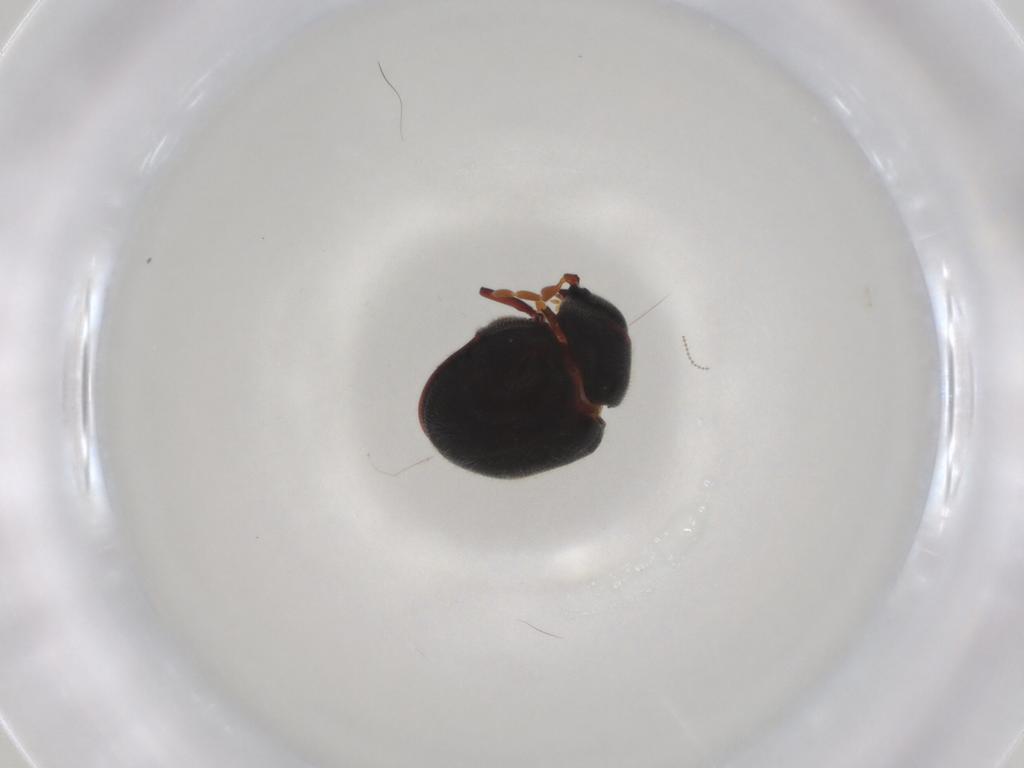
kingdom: Animalia
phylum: Arthropoda
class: Insecta
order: Coleoptera
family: Ptinidae
